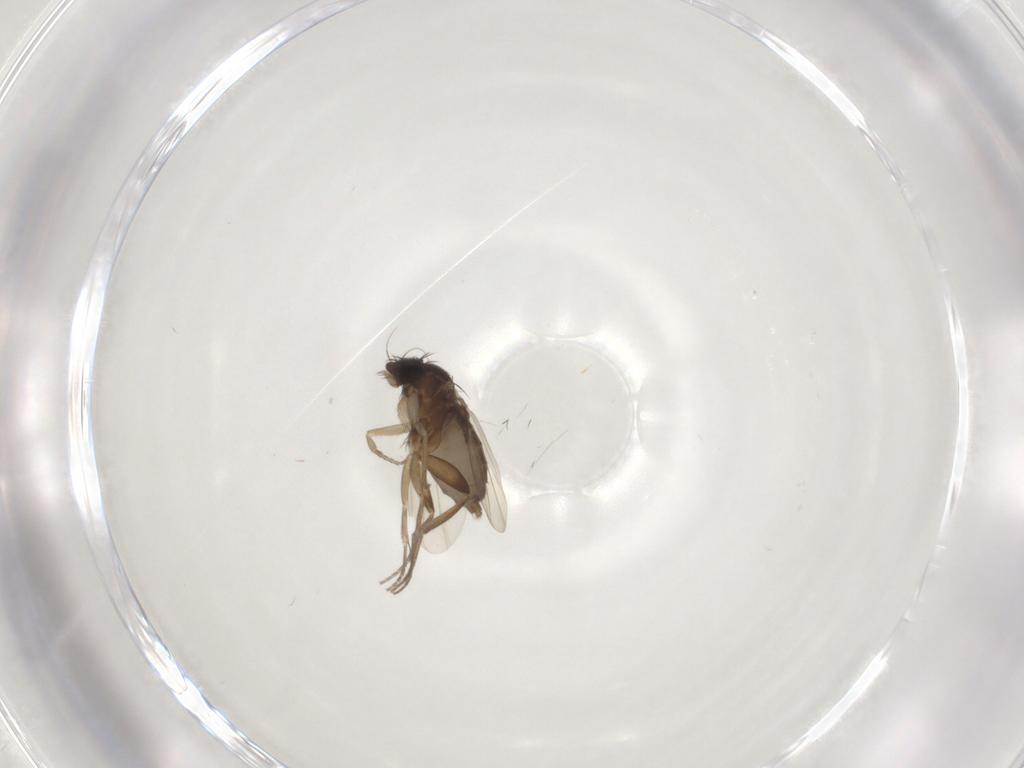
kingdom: Animalia
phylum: Arthropoda
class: Insecta
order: Diptera
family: Phoridae
